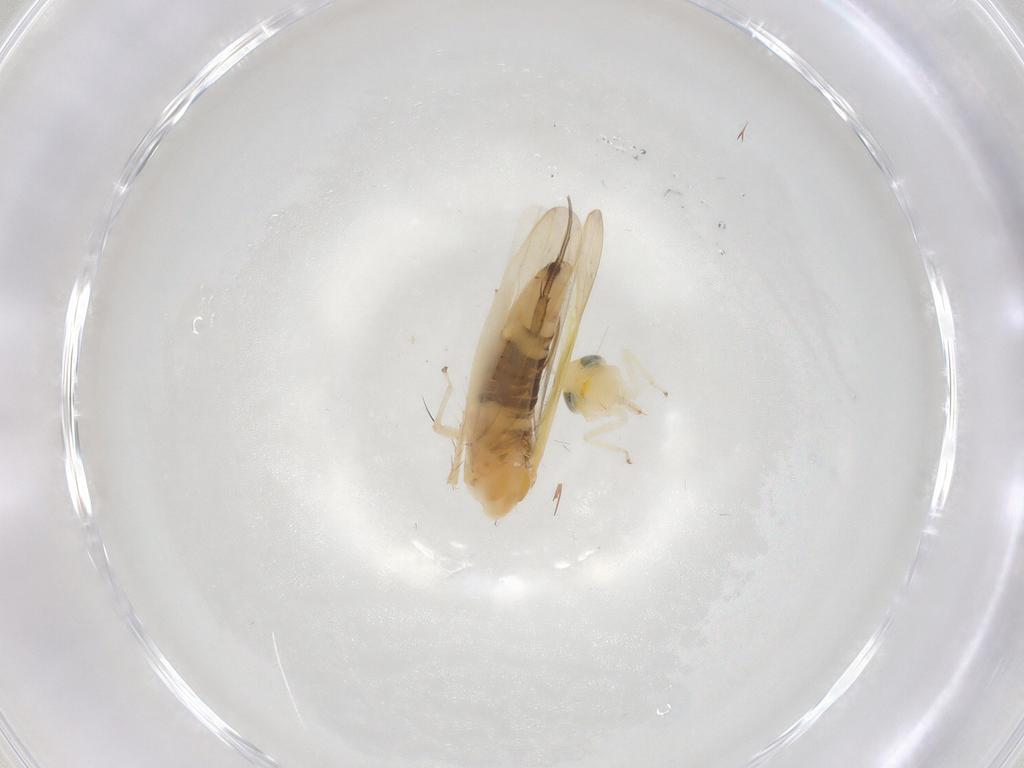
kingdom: Animalia
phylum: Arthropoda
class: Insecta
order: Hemiptera
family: Cicadellidae
